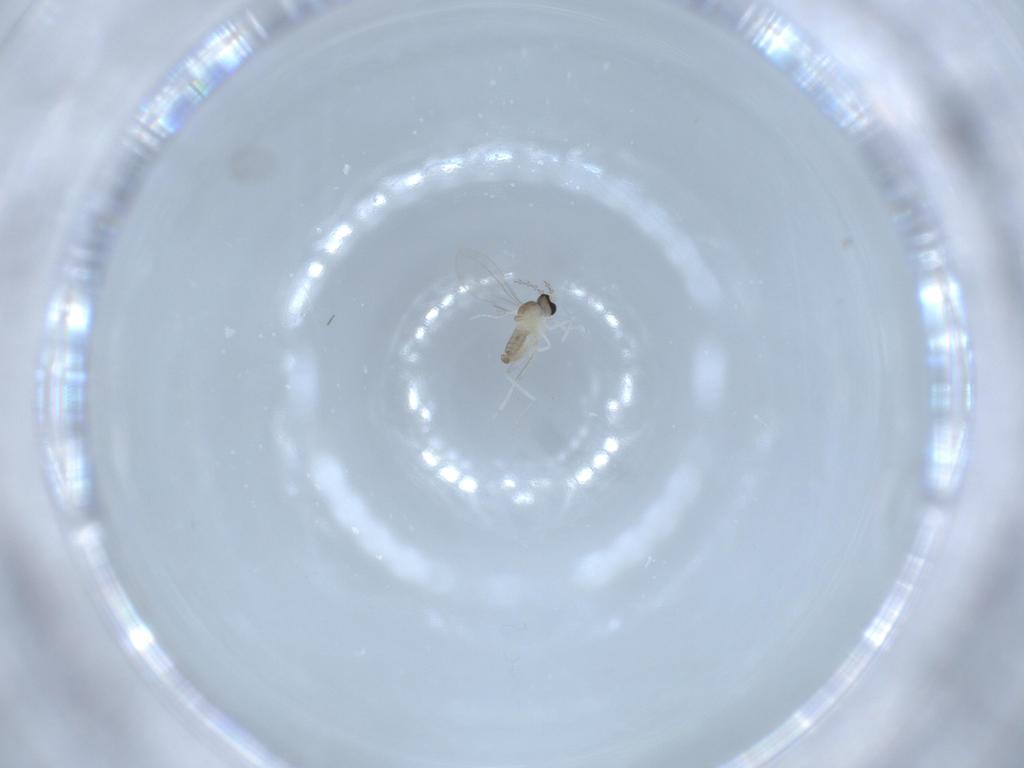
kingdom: Animalia
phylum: Arthropoda
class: Insecta
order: Diptera
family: Cecidomyiidae
